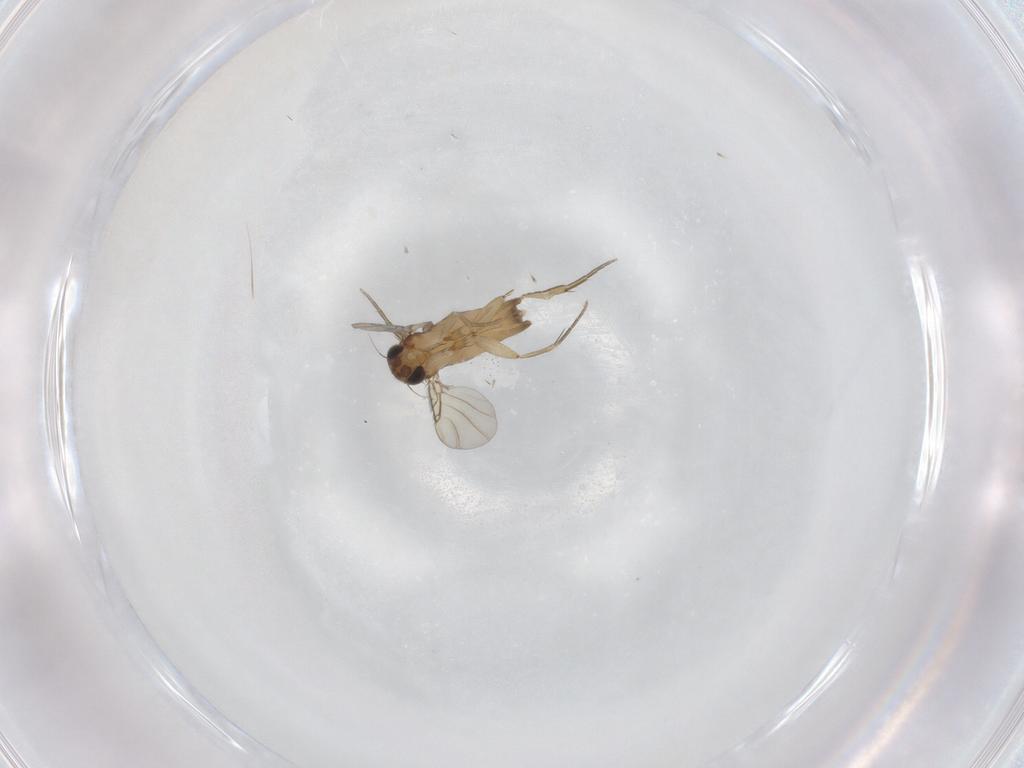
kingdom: Animalia
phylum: Arthropoda
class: Insecta
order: Diptera
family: Phoridae
